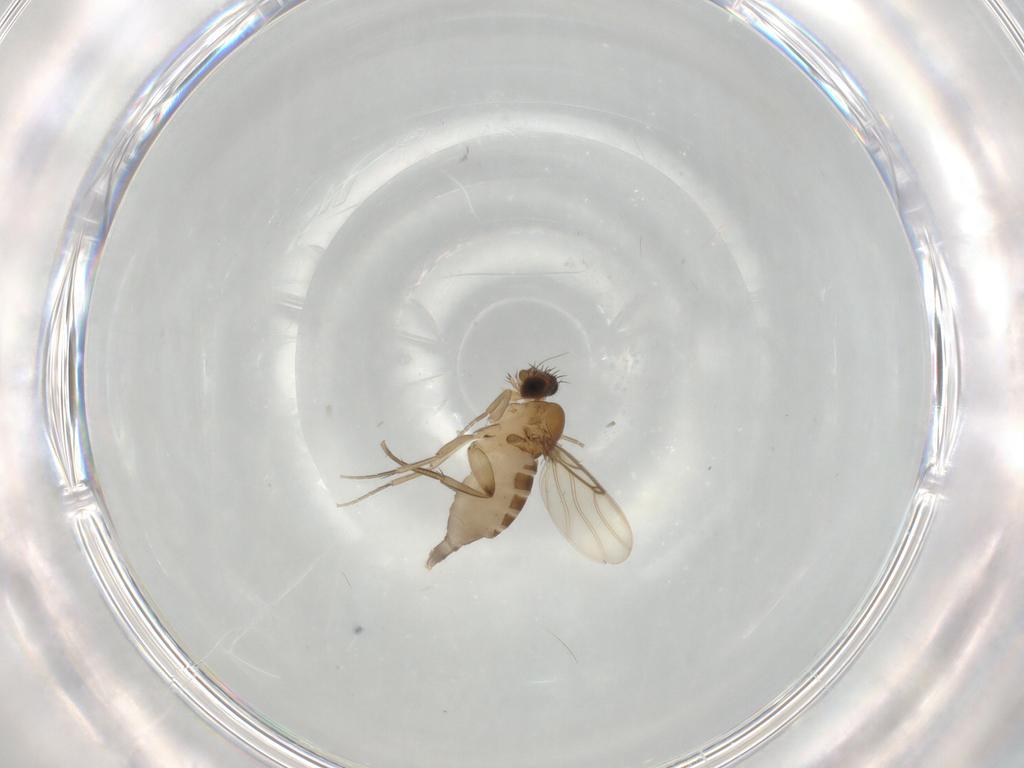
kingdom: Animalia
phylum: Arthropoda
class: Insecta
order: Diptera
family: Phoridae
